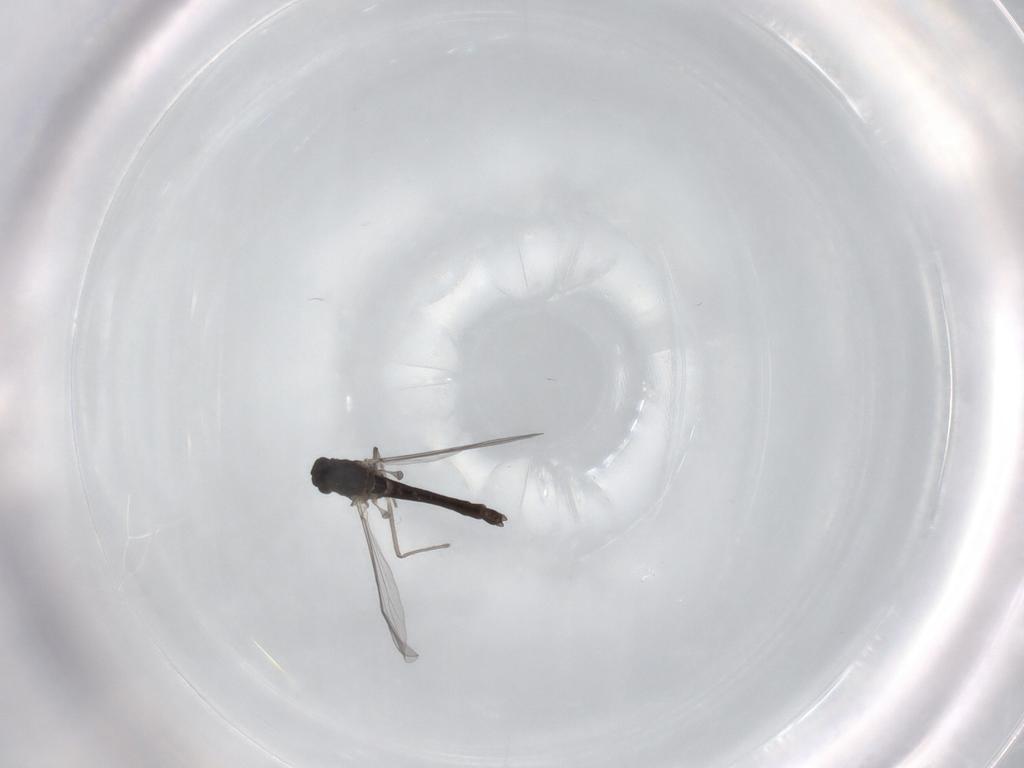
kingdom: Animalia
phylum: Arthropoda
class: Insecta
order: Diptera
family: Chironomidae
